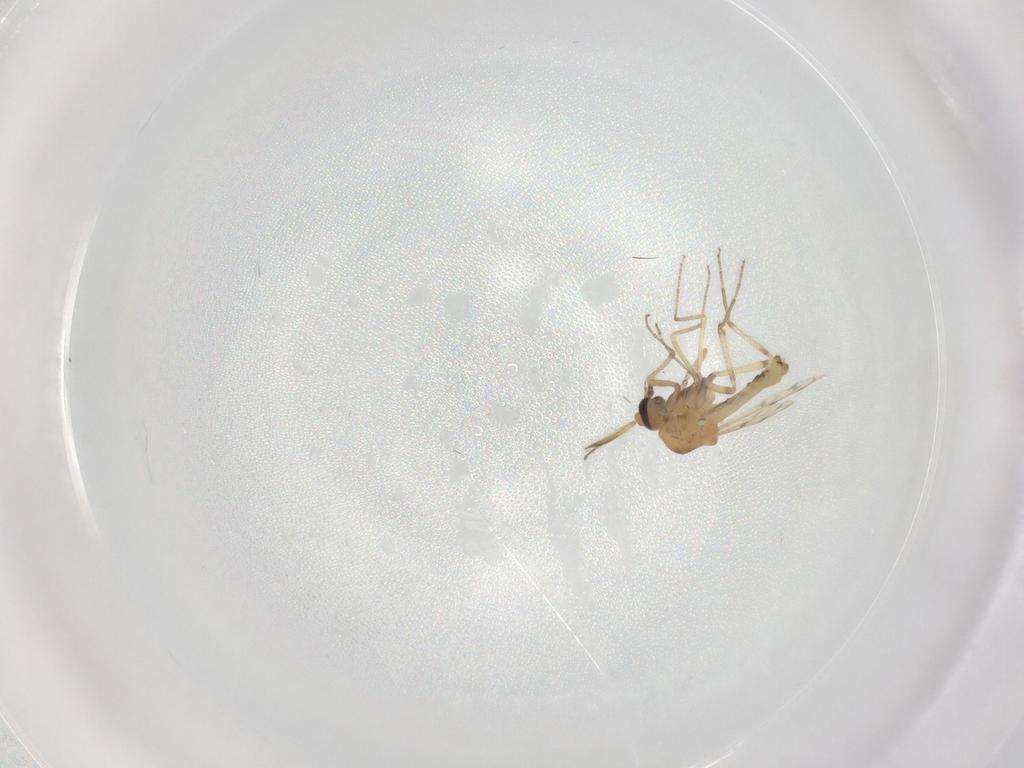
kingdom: Animalia
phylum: Arthropoda
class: Insecta
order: Diptera
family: Ceratopogonidae
